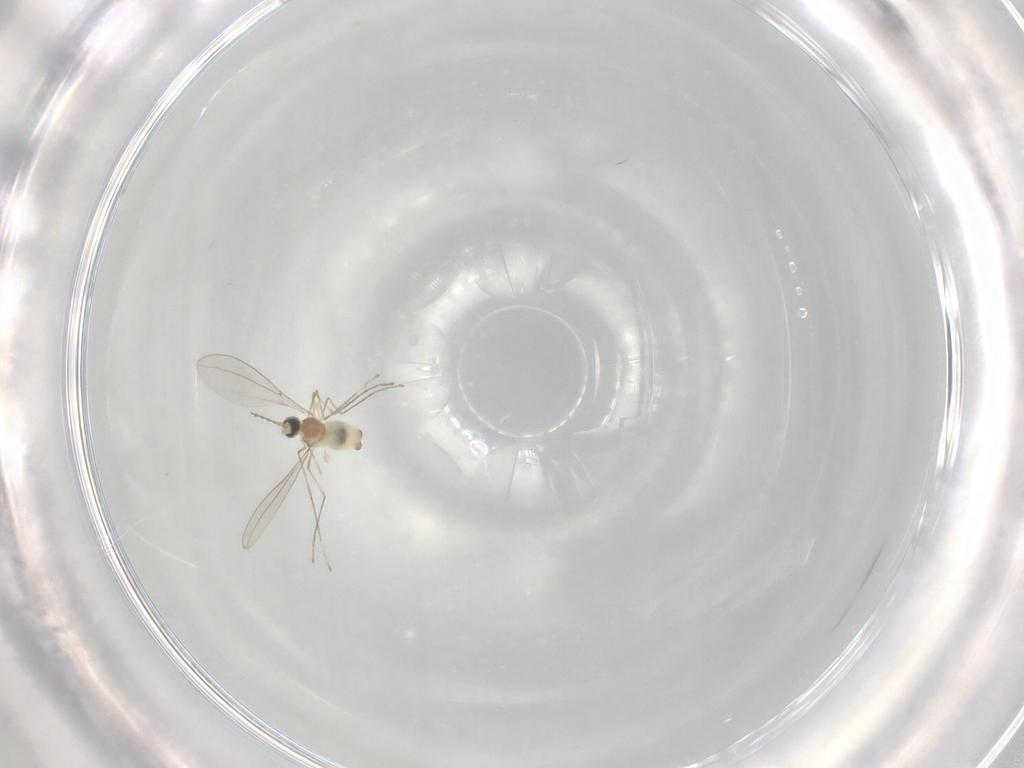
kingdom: Animalia
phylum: Arthropoda
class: Insecta
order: Diptera
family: Cecidomyiidae
